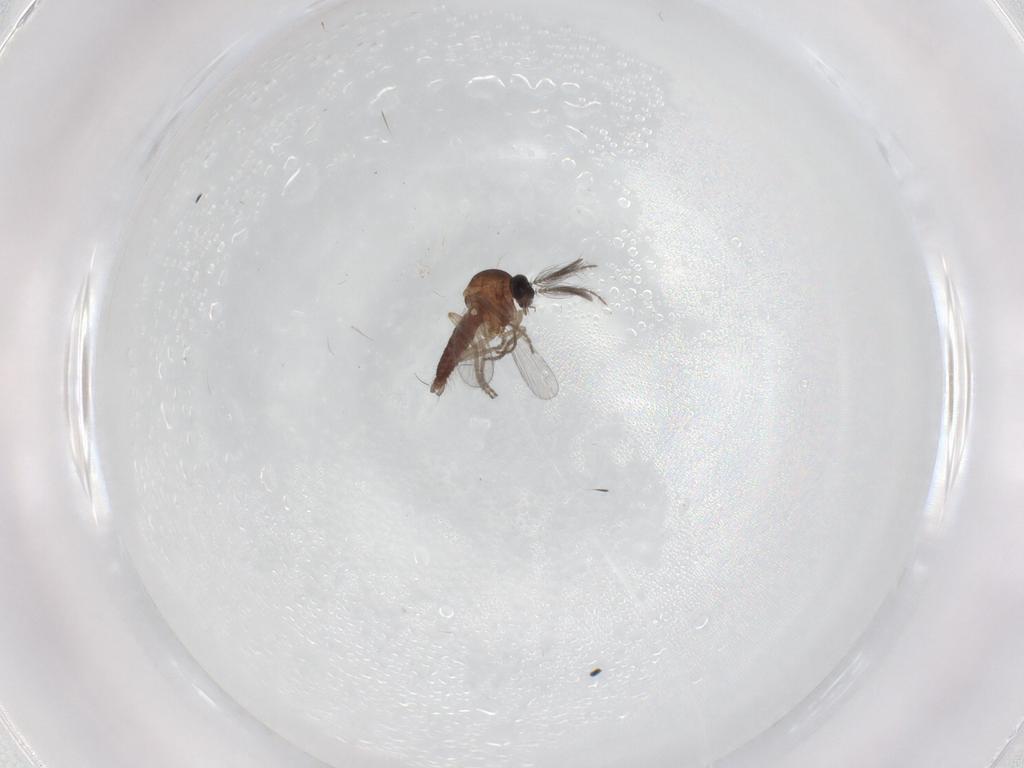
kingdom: Animalia
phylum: Arthropoda
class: Insecta
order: Diptera
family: Ceratopogonidae
